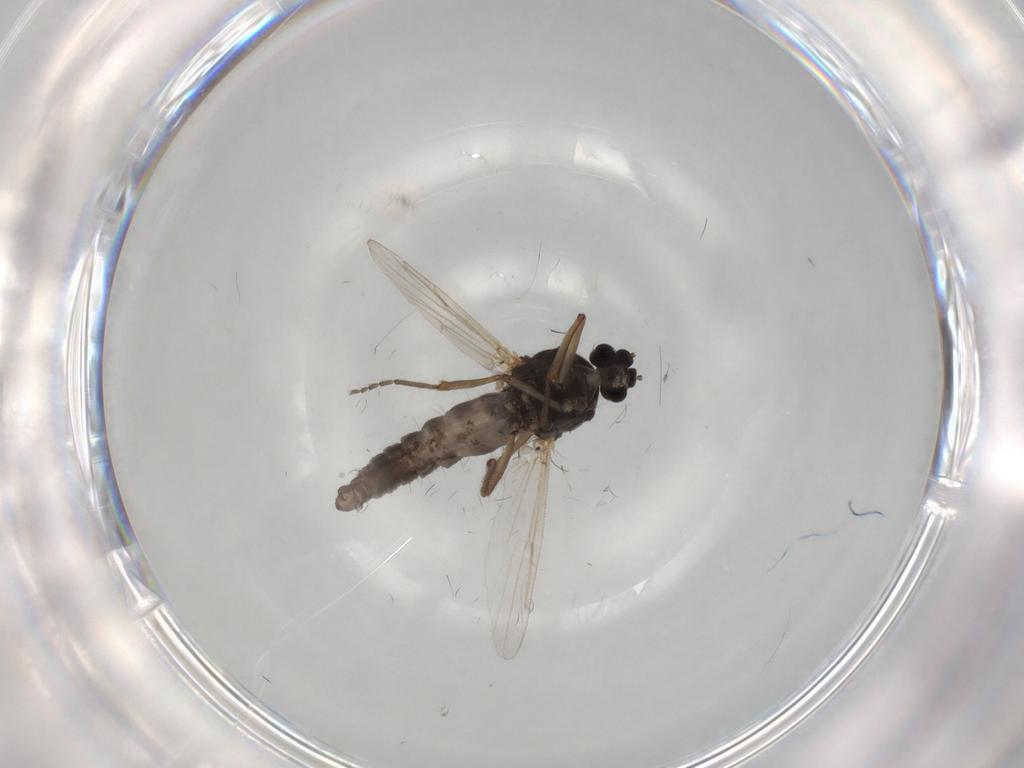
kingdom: Animalia
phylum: Arthropoda
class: Insecta
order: Diptera
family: Ceratopogonidae
